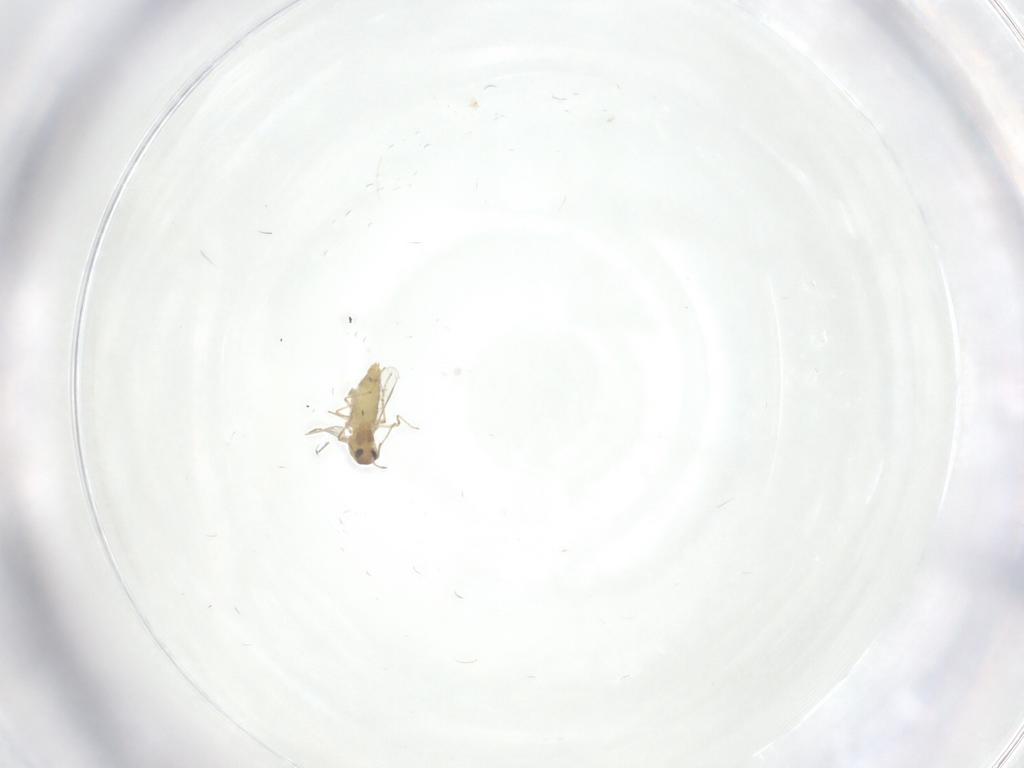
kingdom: Animalia
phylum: Arthropoda
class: Insecta
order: Diptera
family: Chironomidae
